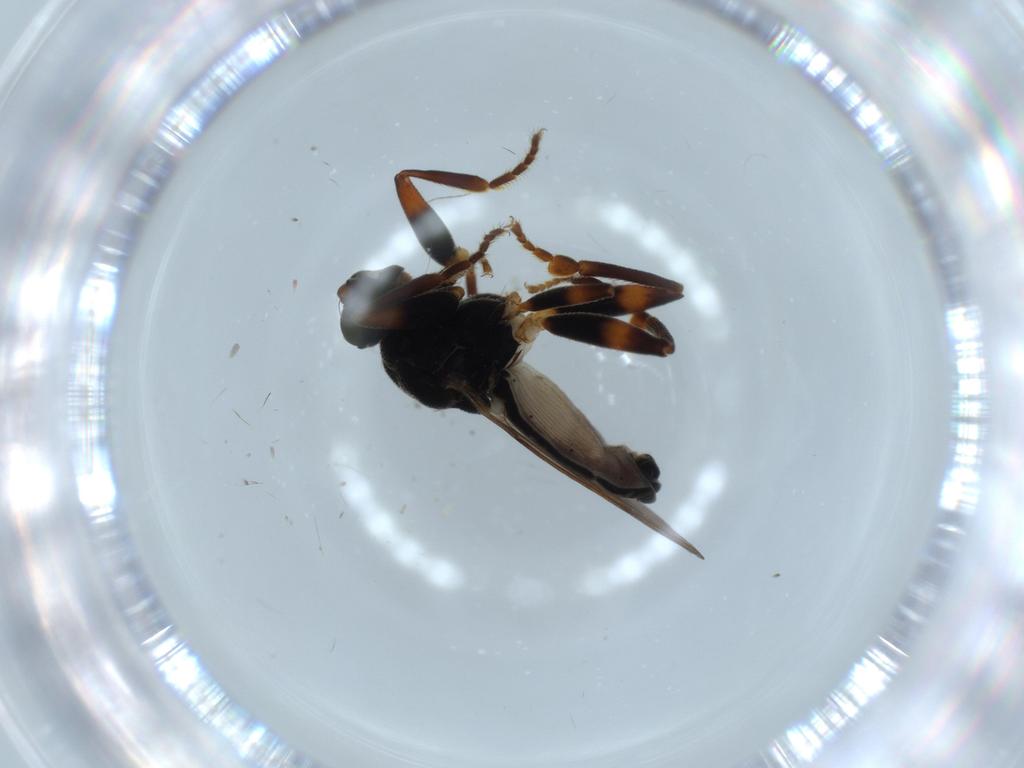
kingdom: Animalia
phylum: Arthropoda
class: Insecta
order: Diptera
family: Sphaeroceridae
